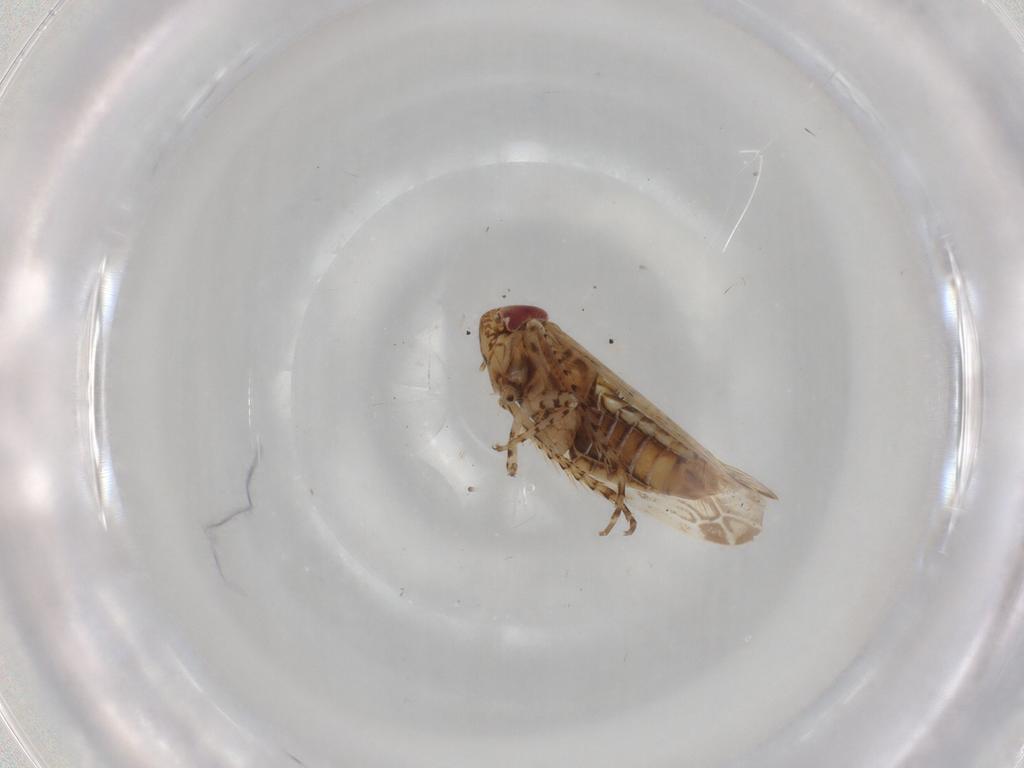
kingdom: Animalia
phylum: Arthropoda
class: Insecta
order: Hemiptera
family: Cicadellidae
